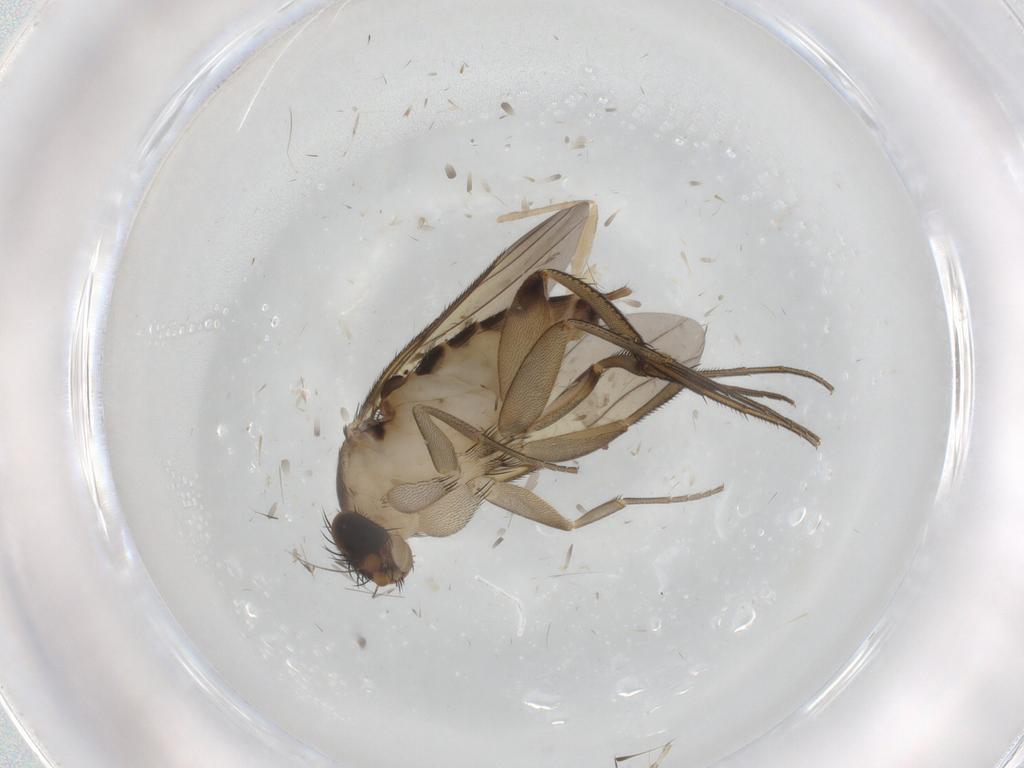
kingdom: Animalia
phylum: Arthropoda
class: Insecta
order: Diptera
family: Phoridae
